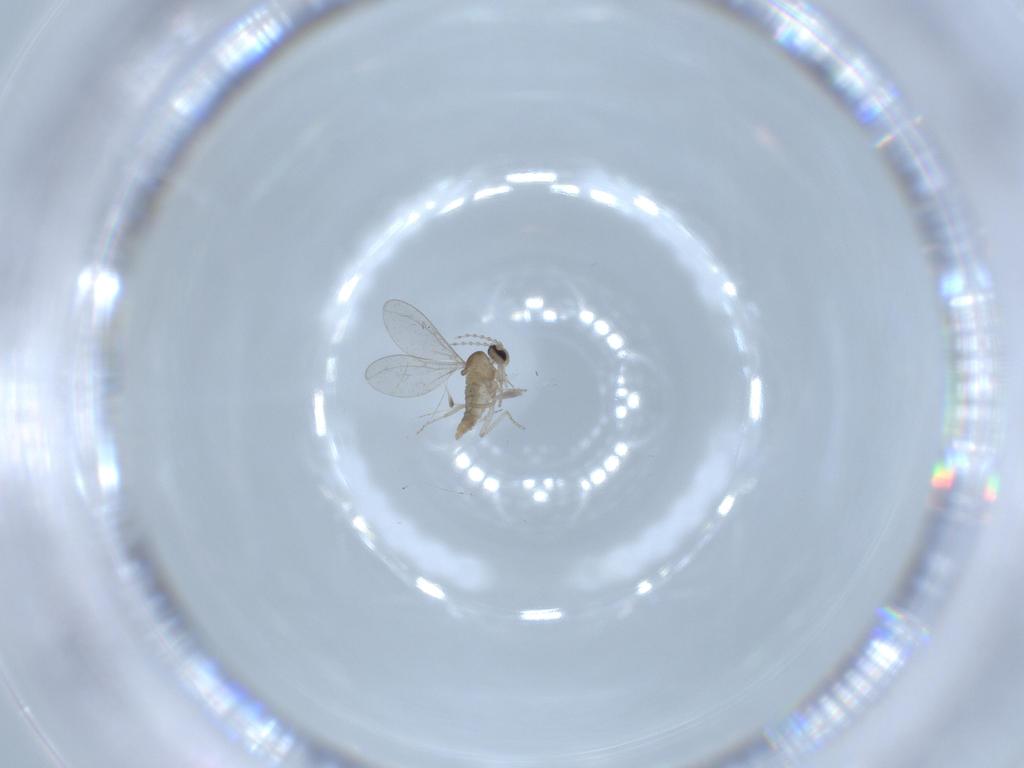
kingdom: Animalia
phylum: Arthropoda
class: Insecta
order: Diptera
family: Cecidomyiidae
